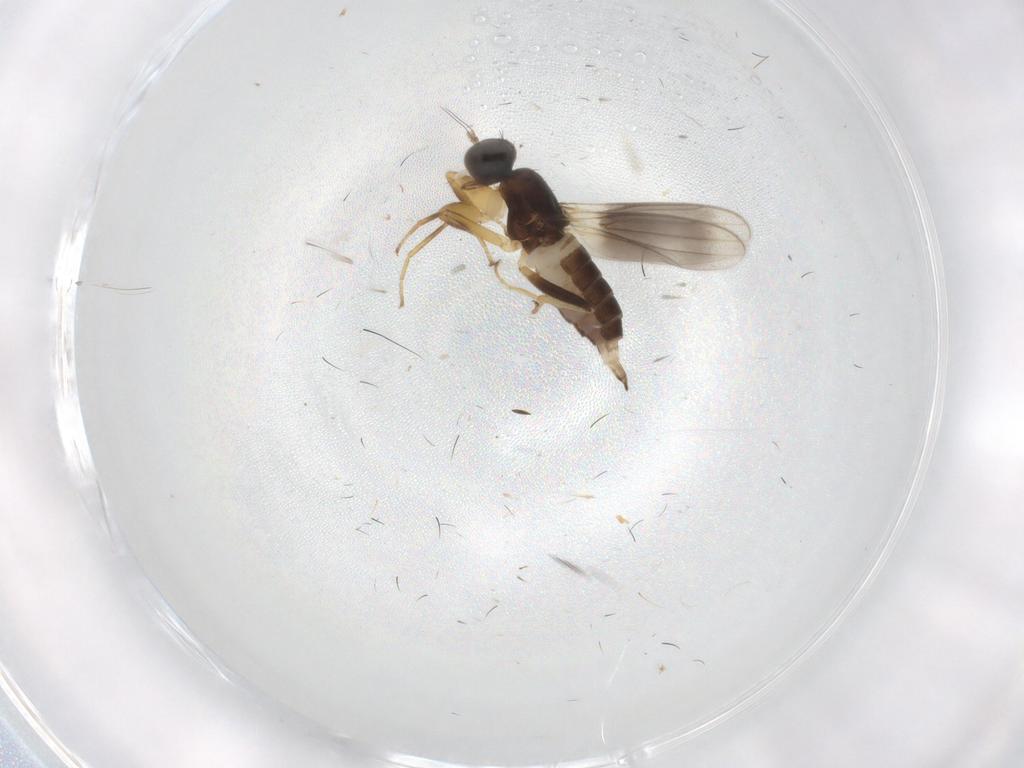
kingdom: Animalia
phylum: Arthropoda
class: Insecta
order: Diptera
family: Hybotidae
